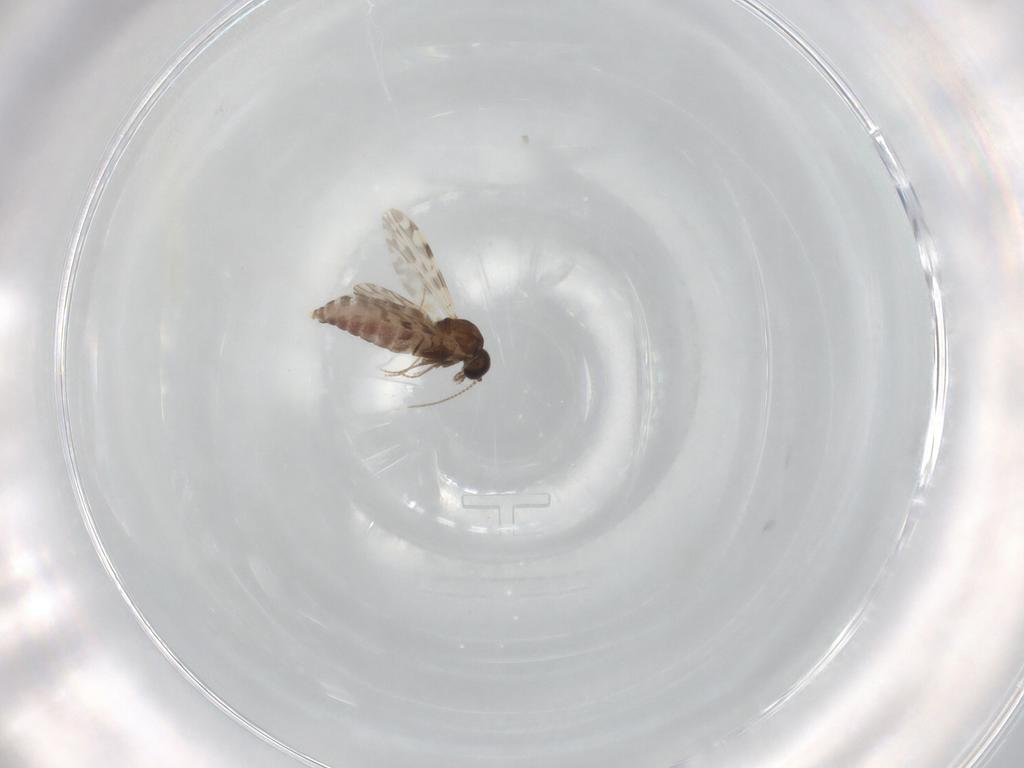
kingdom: Animalia
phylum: Arthropoda
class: Insecta
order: Diptera
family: Ceratopogonidae
